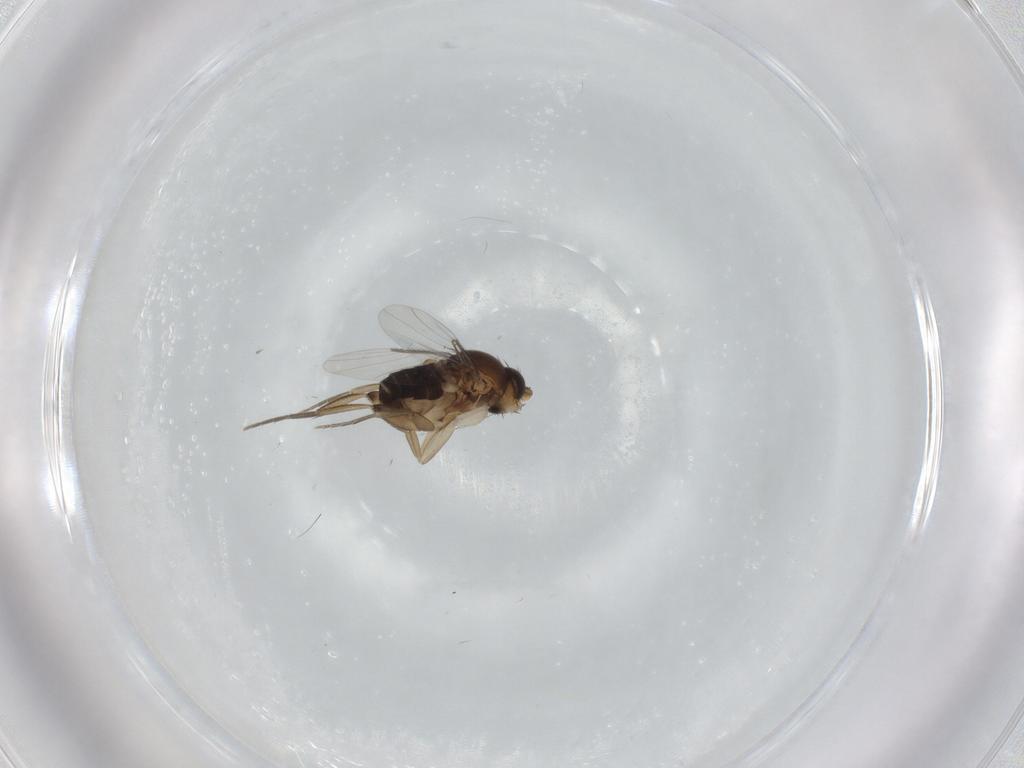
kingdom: Animalia
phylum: Arthropoda
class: Insecta
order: Diptera
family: Phoridae
